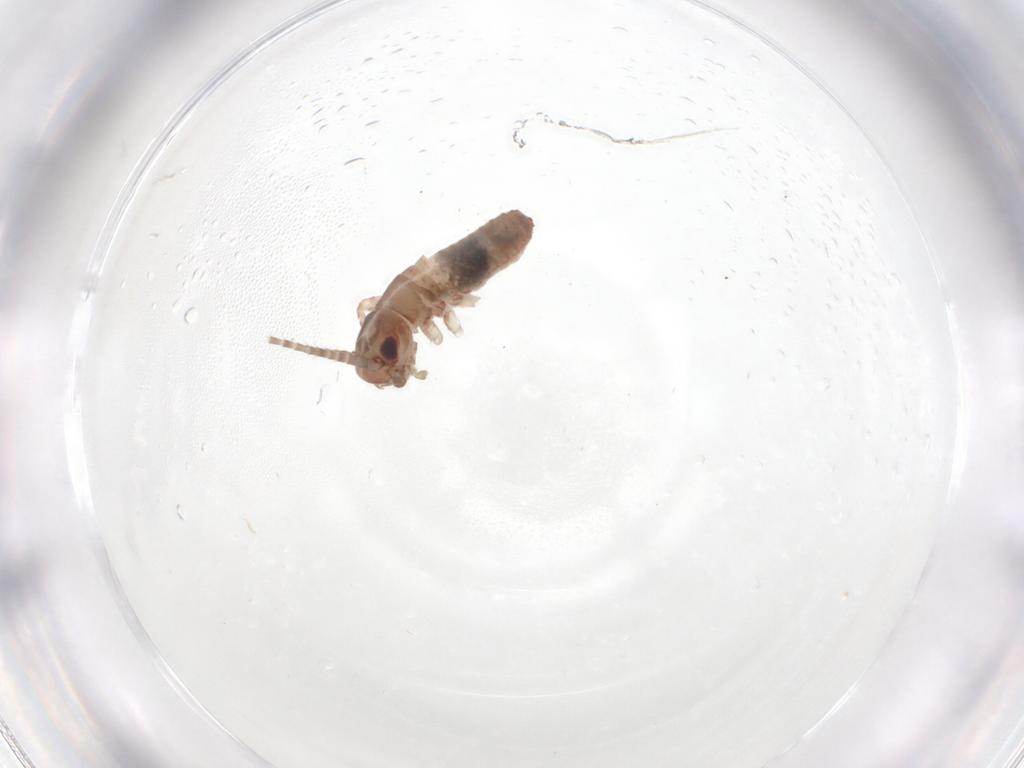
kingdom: Animalia
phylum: Arthropoda
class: Insecta
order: Orthoptera
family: Mogoplistidae
